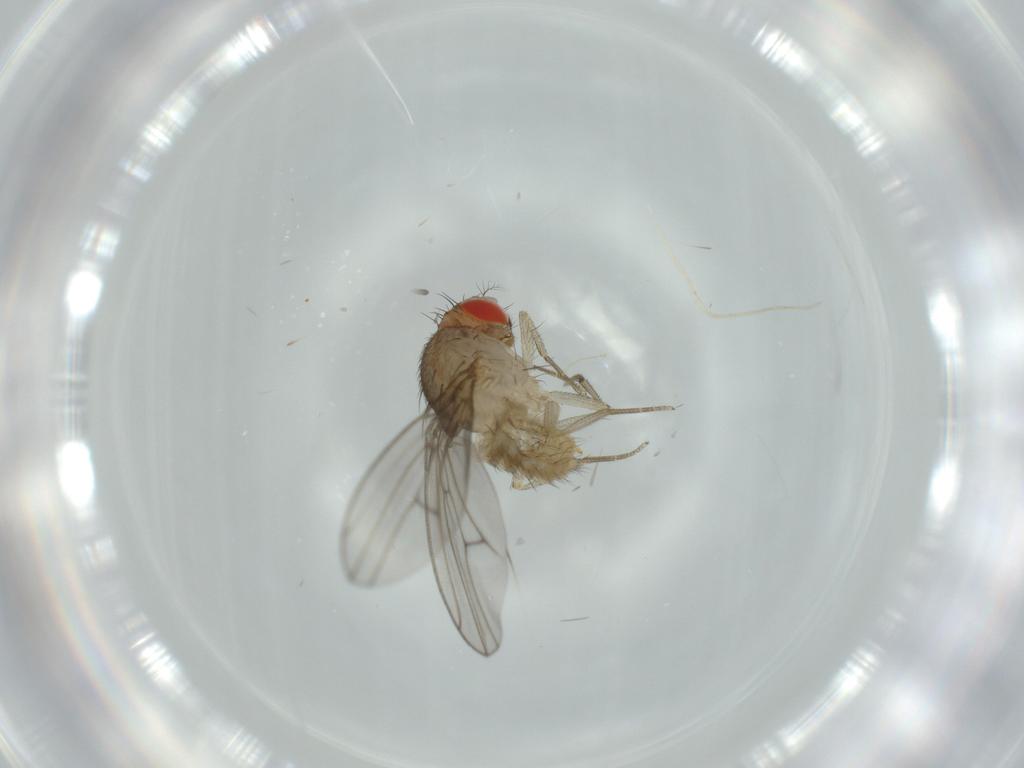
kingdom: Animalia
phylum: Arthropoda
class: Insecta
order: Diptera
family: Drosophilidae
